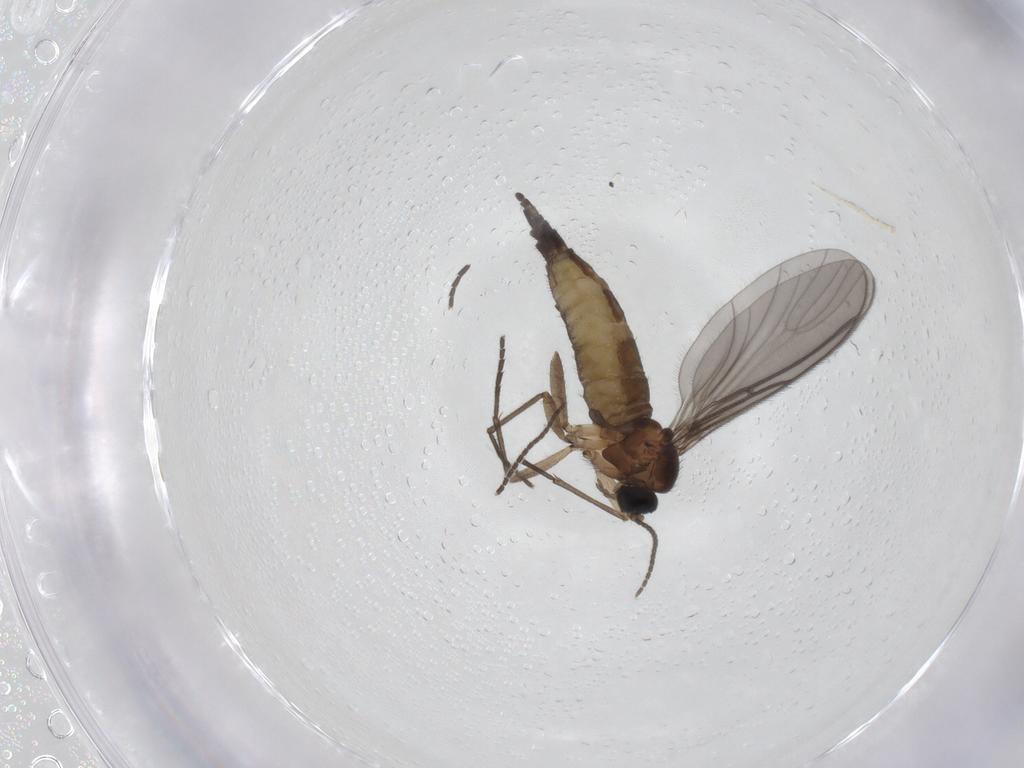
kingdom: Animalia
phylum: Arthropoda
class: Insecta
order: Diptera
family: Sciaridae
